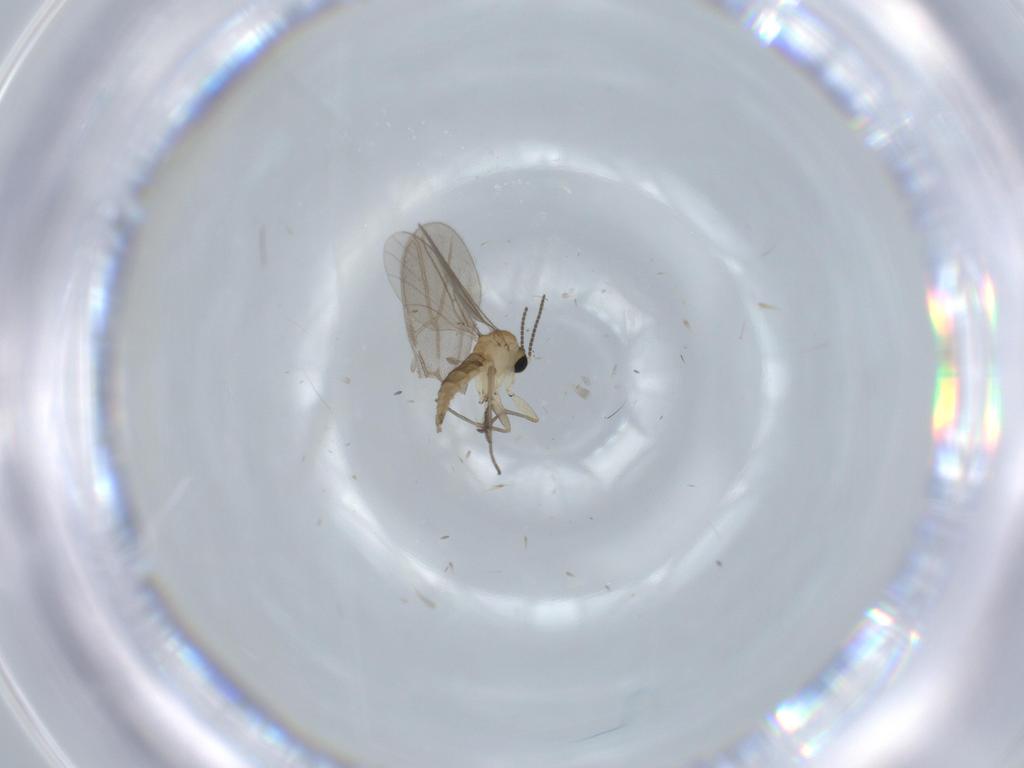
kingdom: Animalia
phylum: Arthropoda
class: Insecta
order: Diptera
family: Sciaridae
